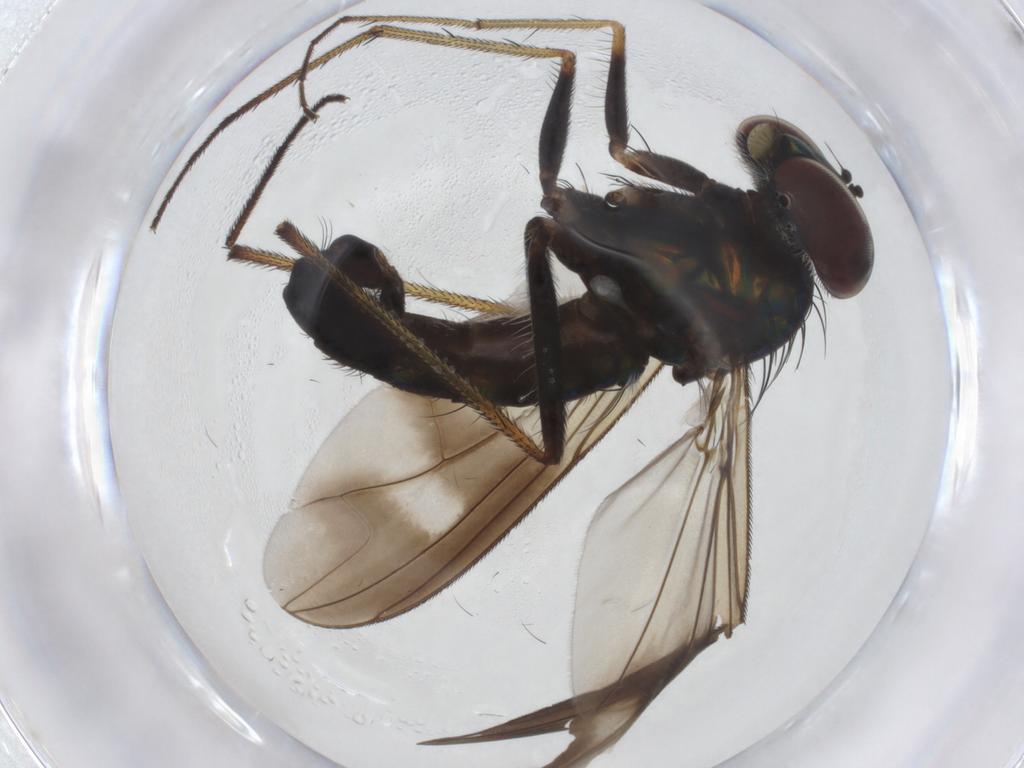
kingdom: Animalia
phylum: Arthropoda
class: Insecta
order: Diptera
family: Dolichopodidae
